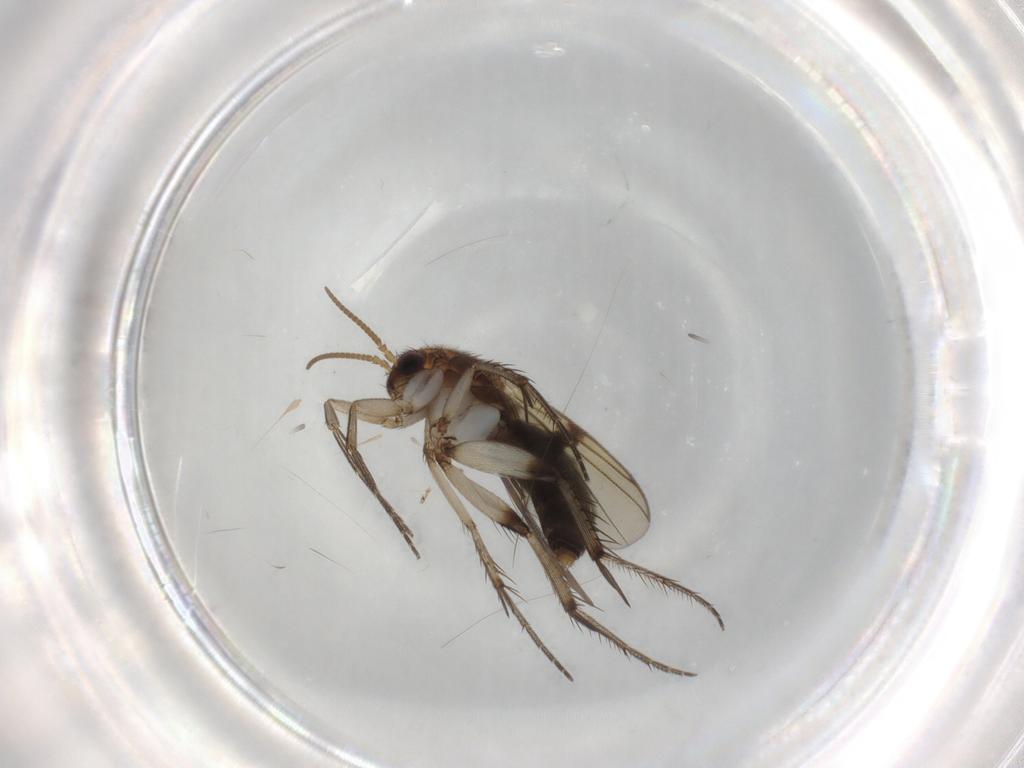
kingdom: Animalia
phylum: Arthropoda
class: Insecta
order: Diptera
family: Mycetophilidae
